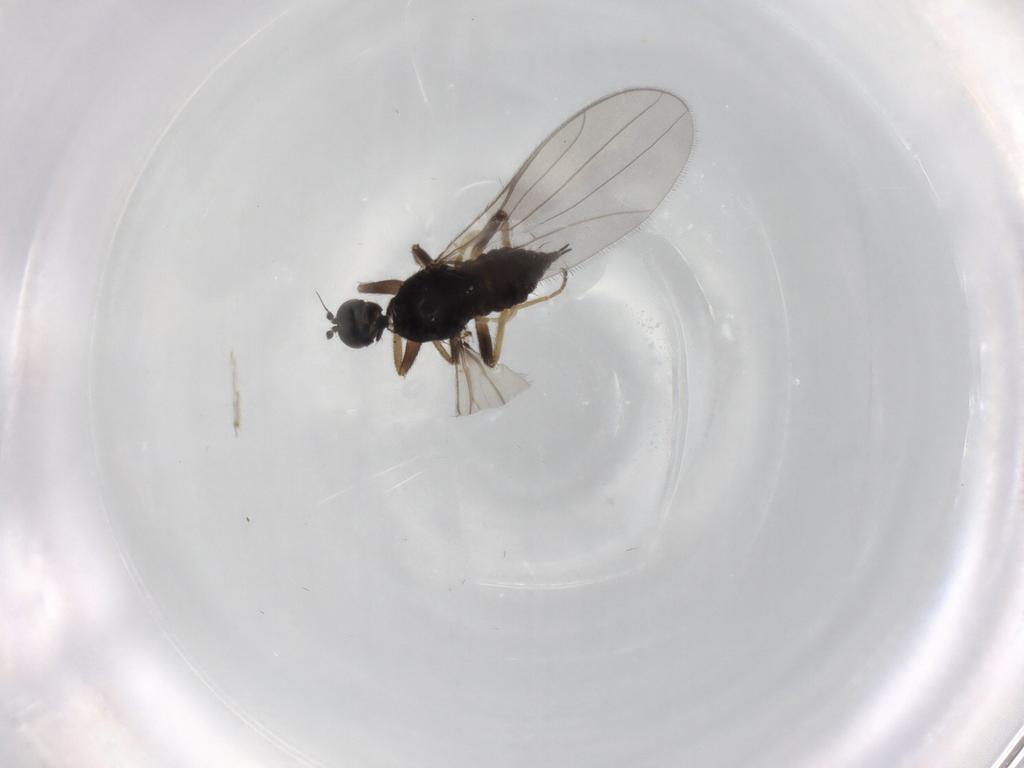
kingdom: Animalia
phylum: Arthropoda
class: Insecta
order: Diptera
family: Hybotidae
